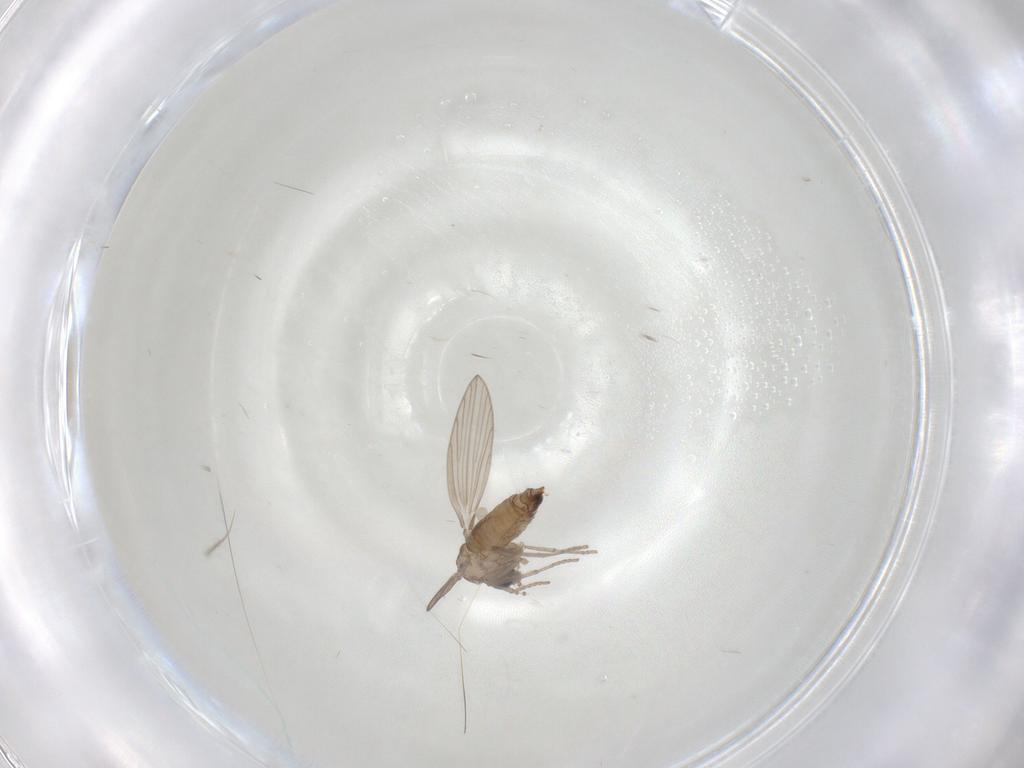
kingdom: Animalia
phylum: Arthropoda
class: Insecta
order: Diptera
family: Psychodidae
